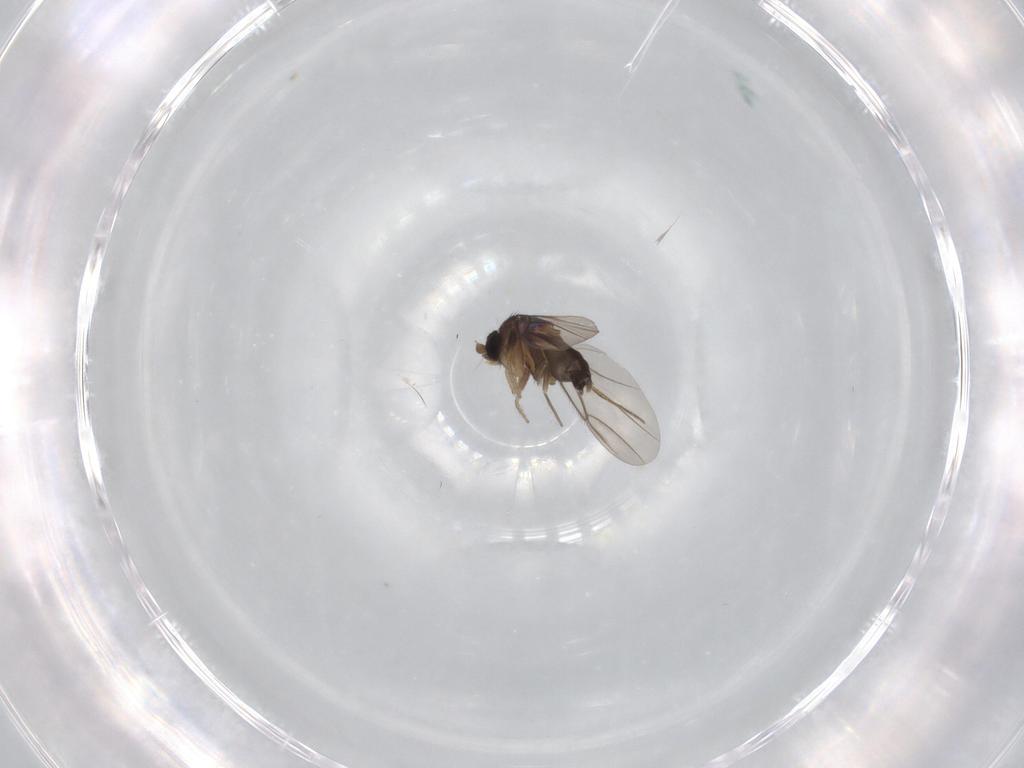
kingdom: Animalia
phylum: Arthropoda
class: Insecta
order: Diptera
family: Phoridae
